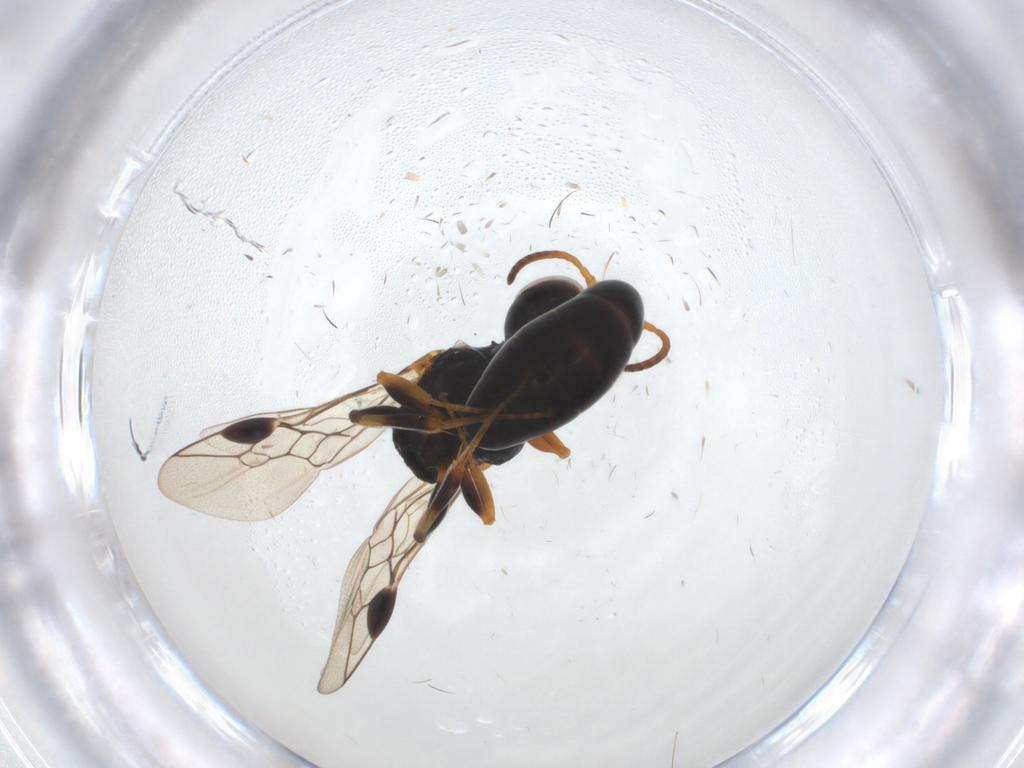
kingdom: Animalia
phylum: Arthropoda
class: Insecta
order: Hymenoptera
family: Pemphredonidae
